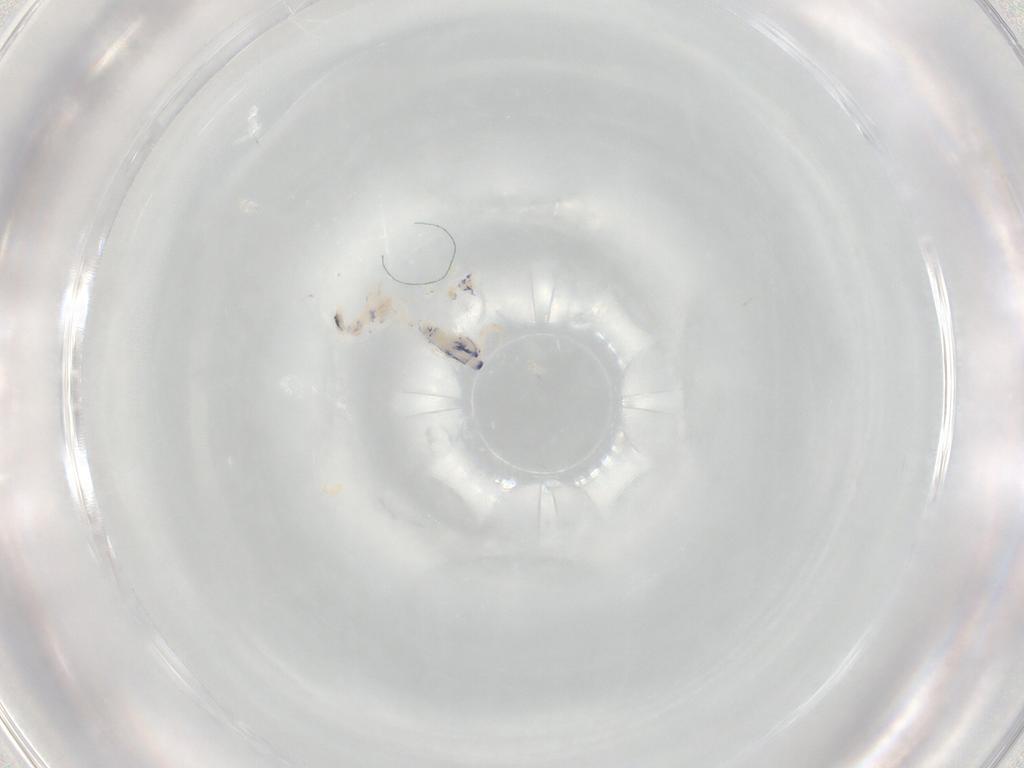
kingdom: Animalia
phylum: Arthropoda
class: Collembola
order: Entomobryomorpha
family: Entomobryidae
